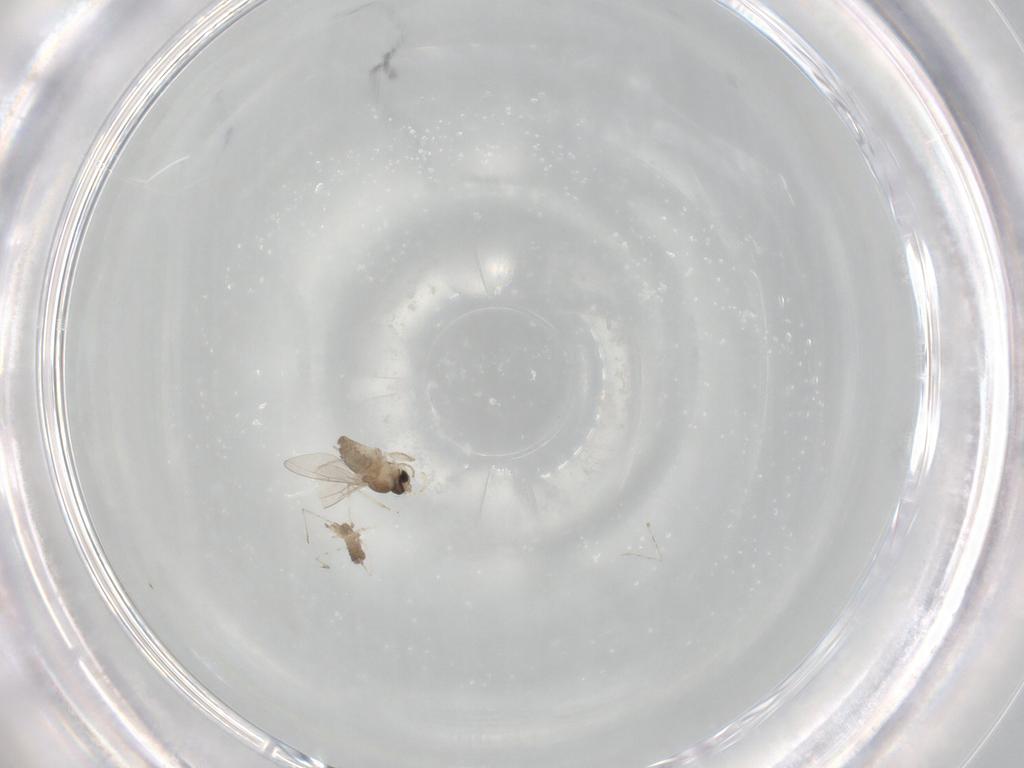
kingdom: Animalia
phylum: Arthropoda
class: Insecta
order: Diptera
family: Cecidomyiidae
